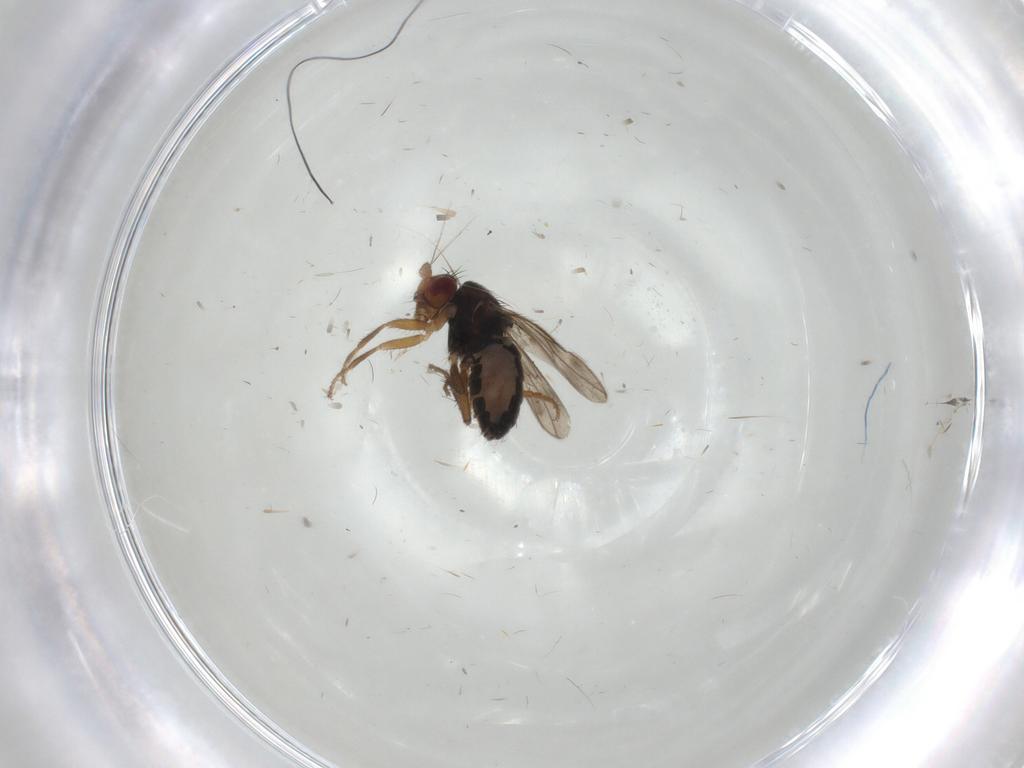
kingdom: Animalia
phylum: Arthropoda
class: Insecta
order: Diptera
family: Sphaeroceridae
